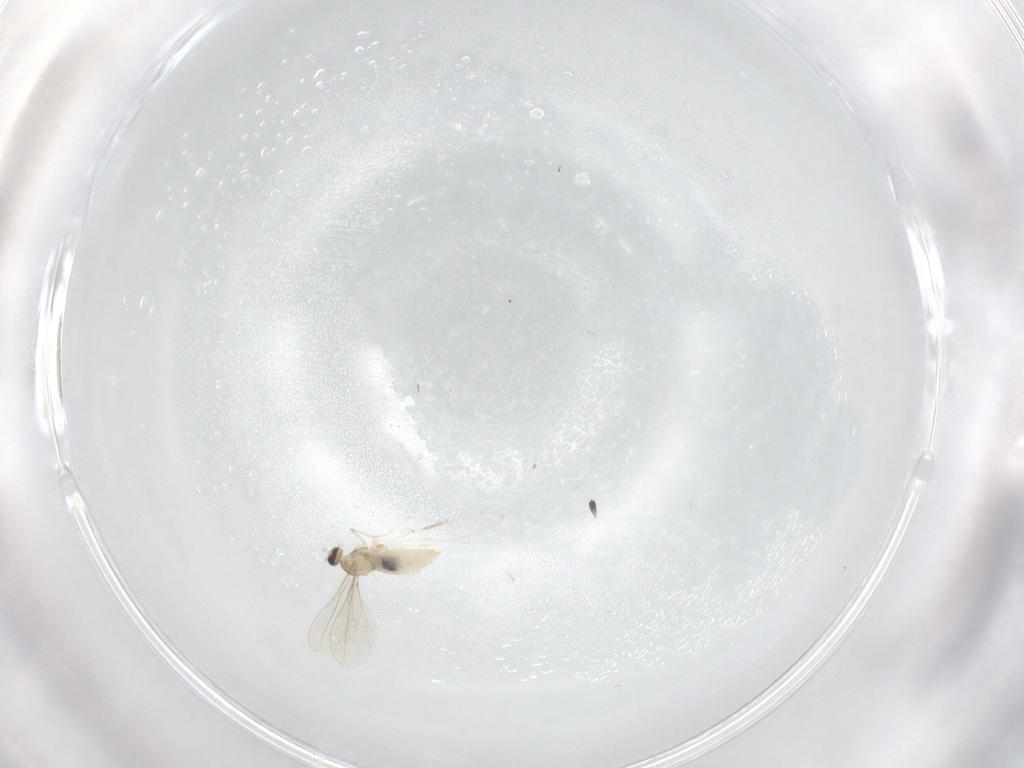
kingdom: Animalia
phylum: Arthropoda
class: Insecta
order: Diptera
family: Cecidomyiidae
